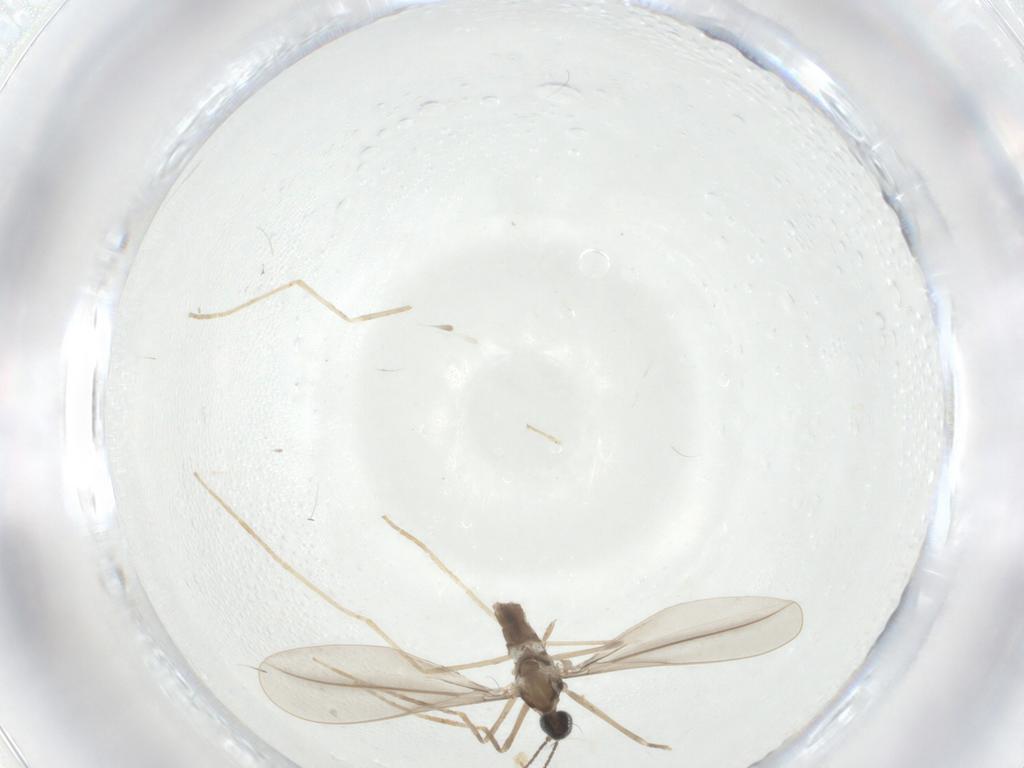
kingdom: Animalia
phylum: Arthropoda
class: Insecta
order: Diptera
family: Cecidomyiidae
